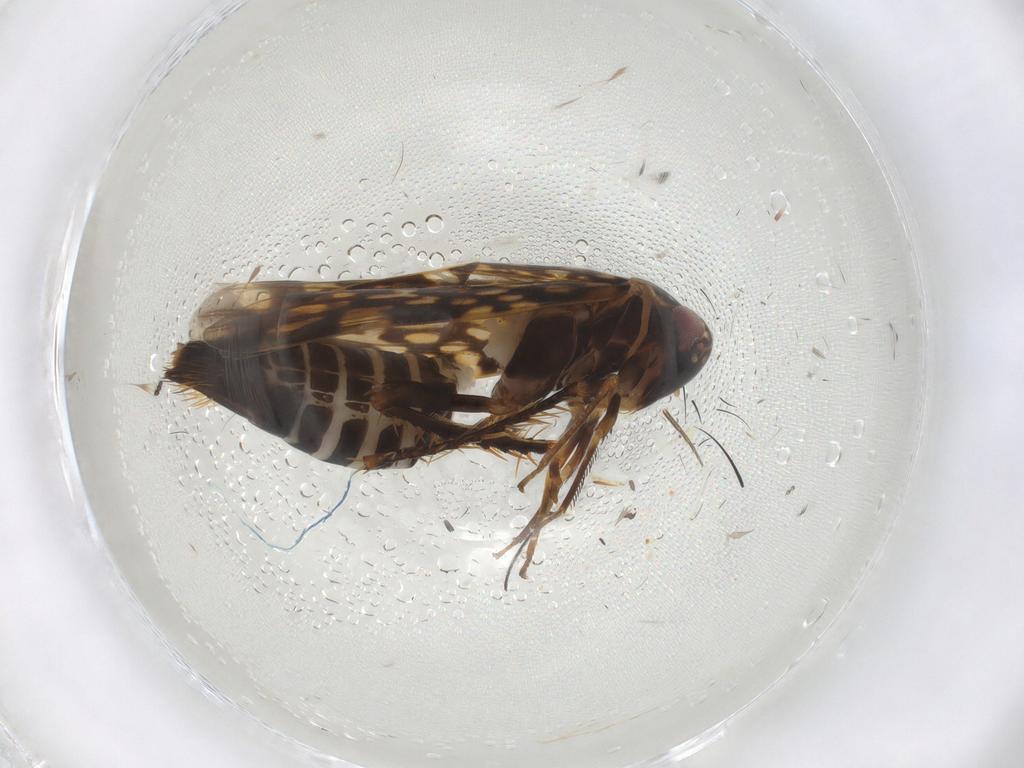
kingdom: Animalia
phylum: Arthropoda
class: Insecta
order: Hemiptera
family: Cicadellidae
